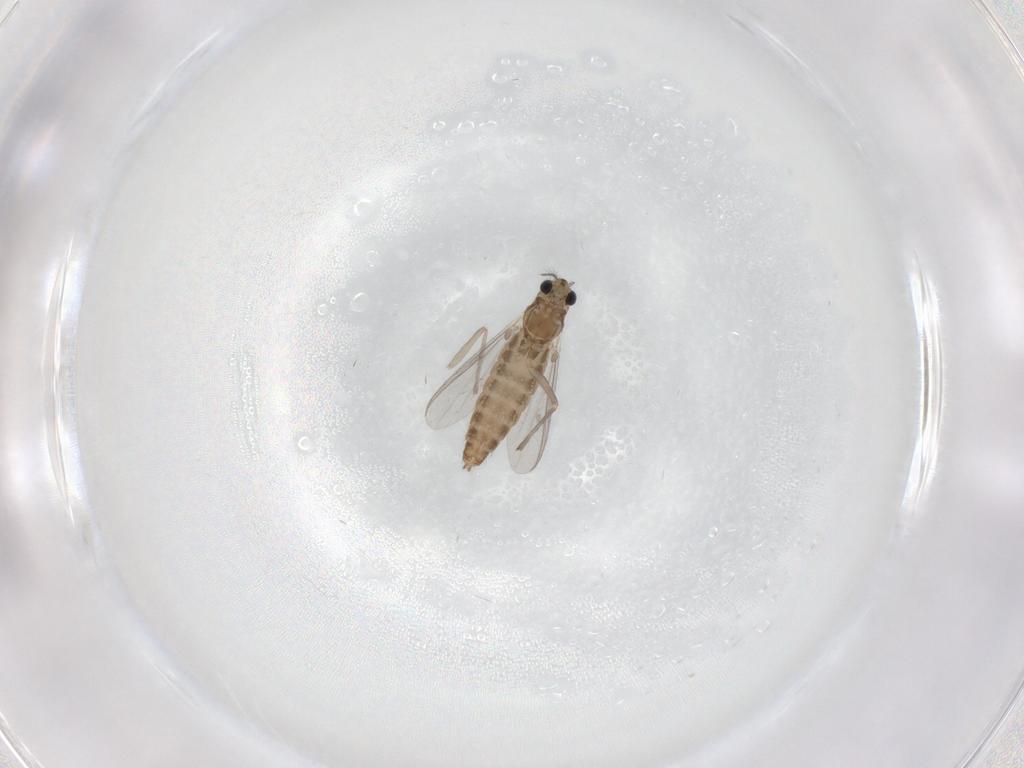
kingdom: Animalia
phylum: Arthropoda
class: Insecta
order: Diptera
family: Chironomidae
